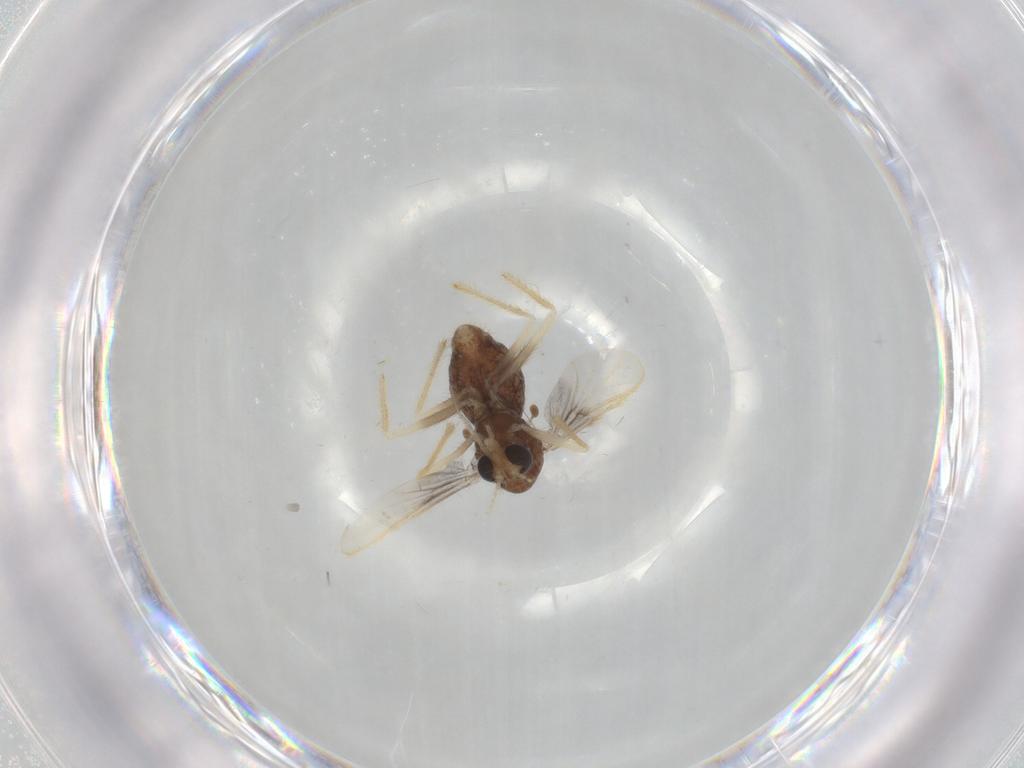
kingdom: Animalia
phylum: Arthropoda
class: Insecta
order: Diptera
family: Chironomidae
